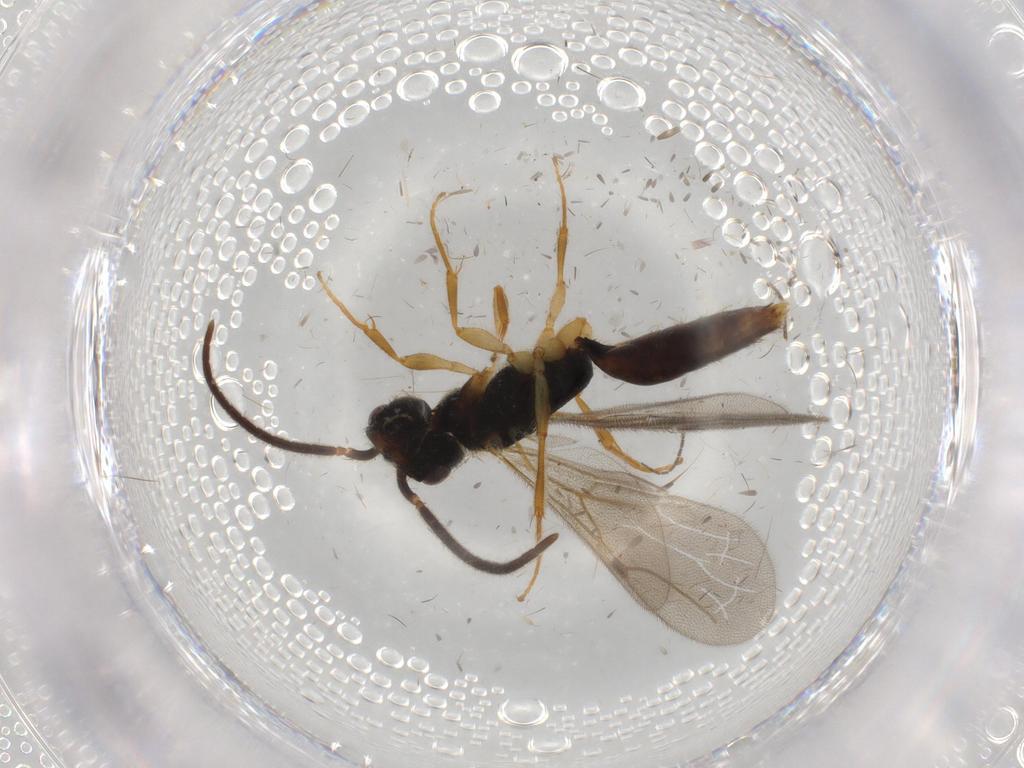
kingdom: Animalia
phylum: Arthropoda
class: Insecta
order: Hymenoptera
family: Bethylidae
